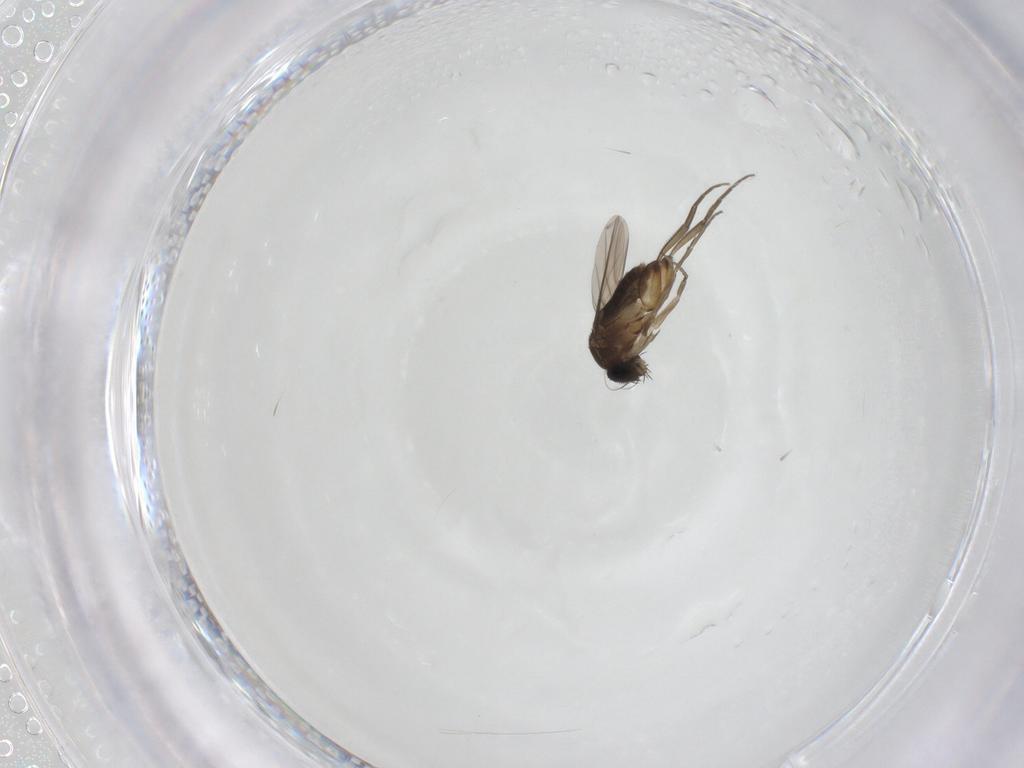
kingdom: Animalia
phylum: Arthropoda
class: Insecta
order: Diptera
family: Phoridae
